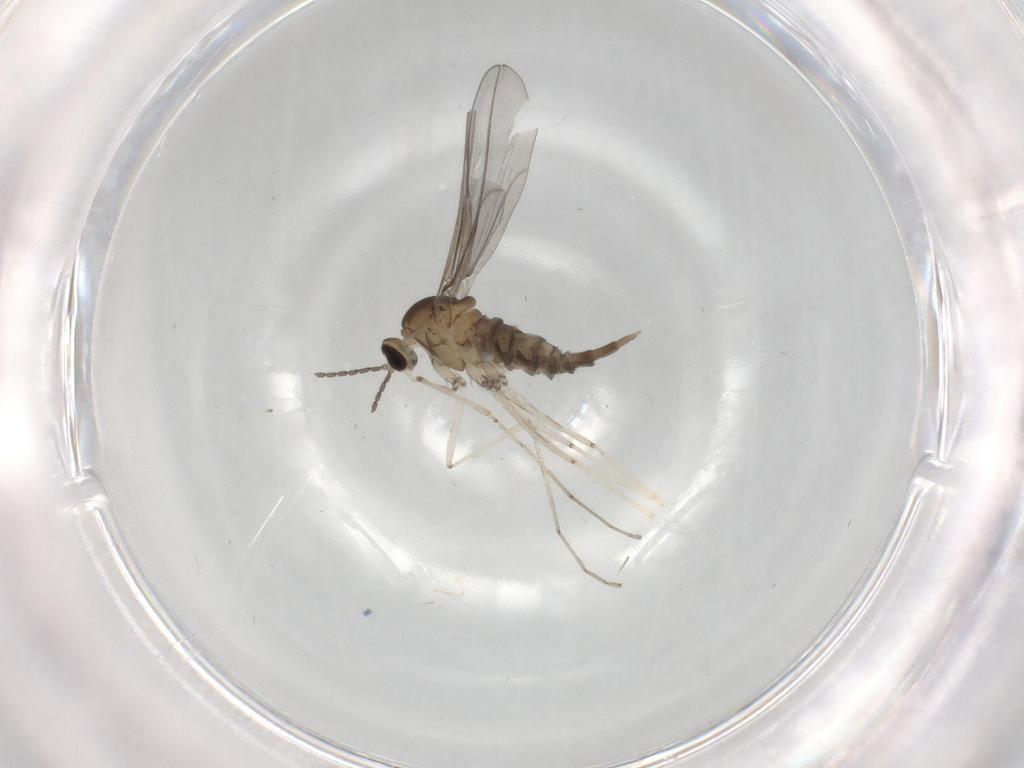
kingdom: Animalia
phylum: Arthropoda
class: Insecta
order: Diptera
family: Cecidomyiidae
